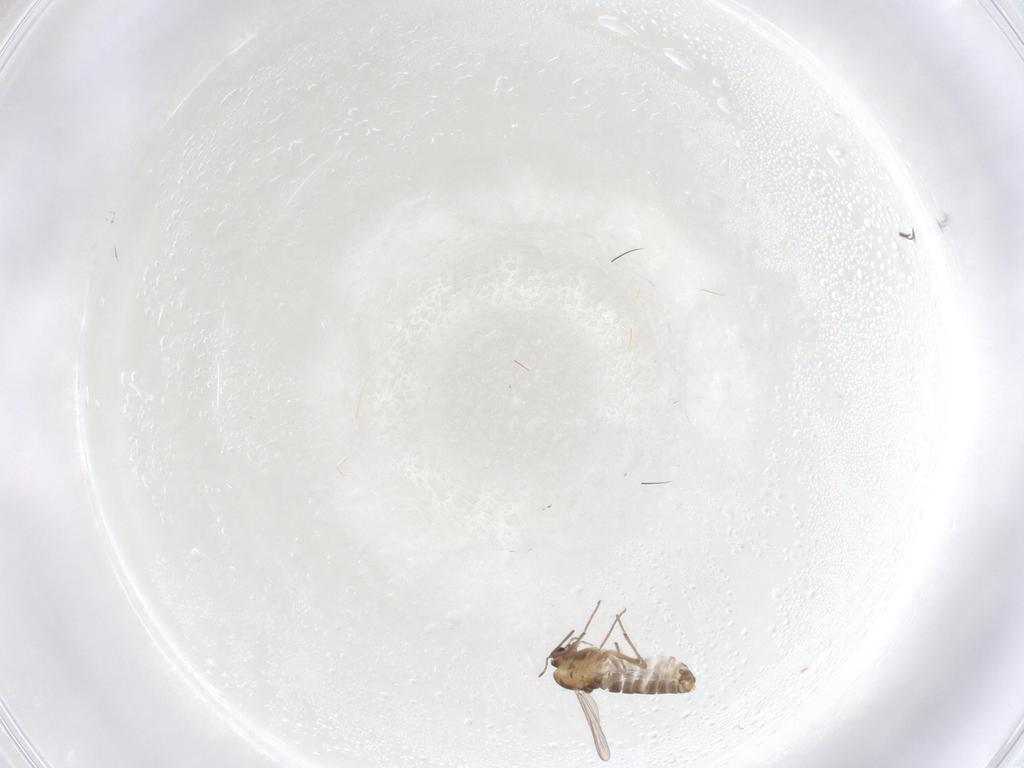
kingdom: Animalia
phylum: Arthropoda
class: Insecta
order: Diptera
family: Chironomidae
